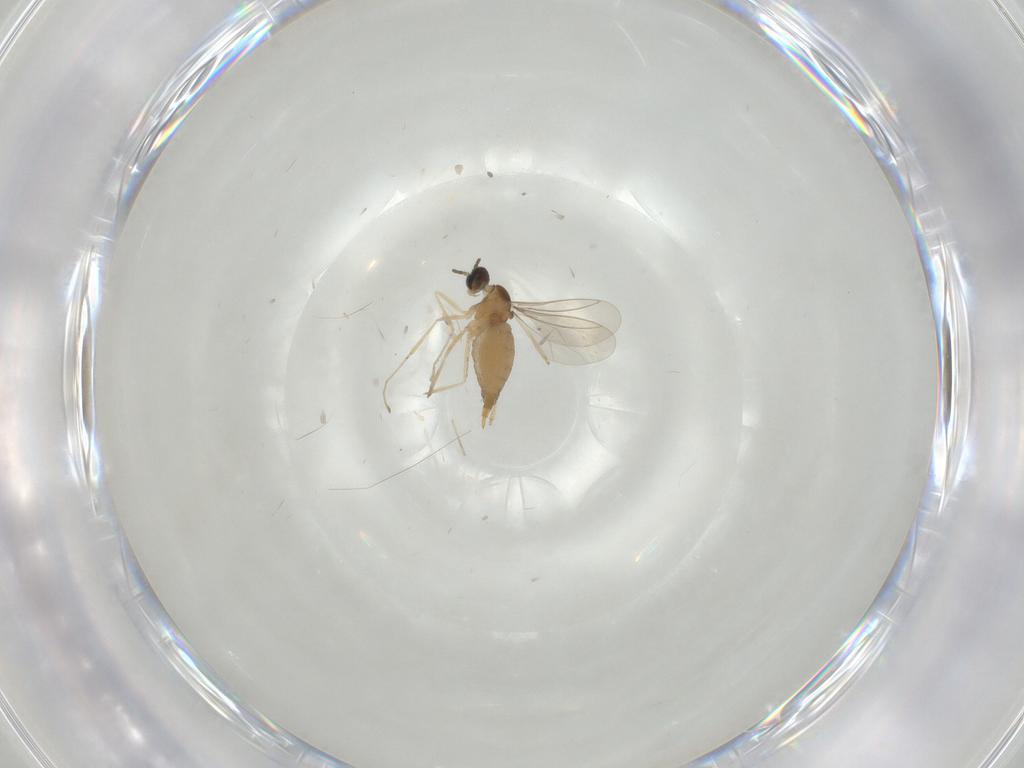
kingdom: Animalia
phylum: Arthropoda
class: Insecta
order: Diptera
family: Cecidomyiidae
